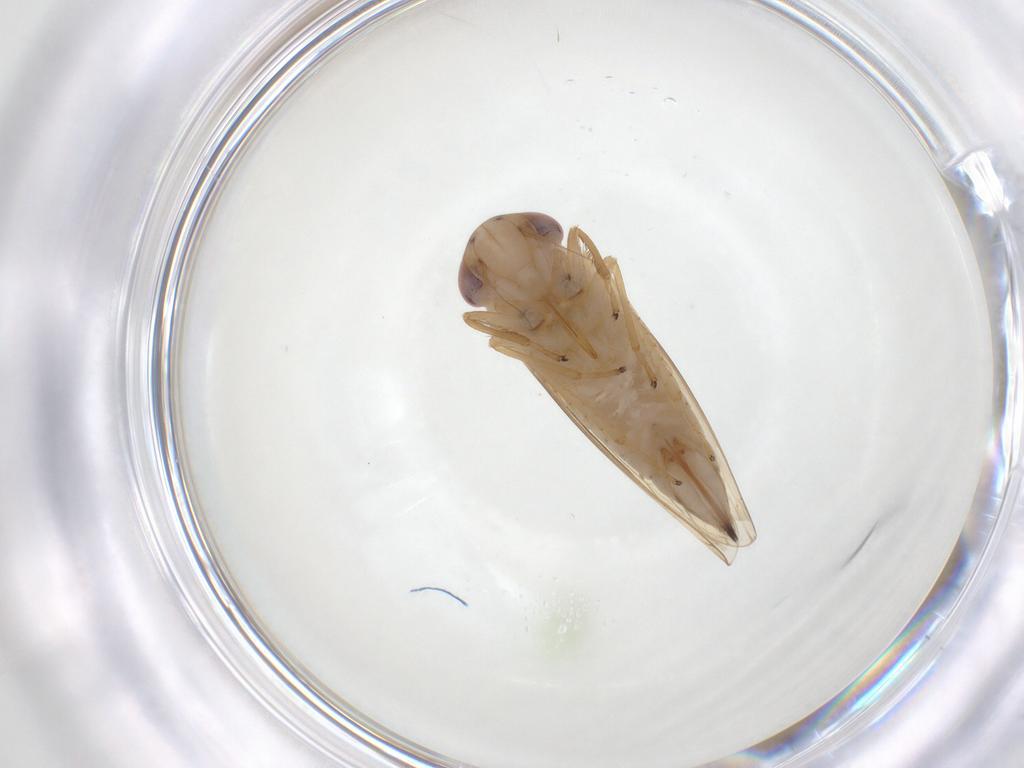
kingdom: Animalia
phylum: Arthropoda
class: Insecta
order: Hemiptera
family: Cicadellidae
